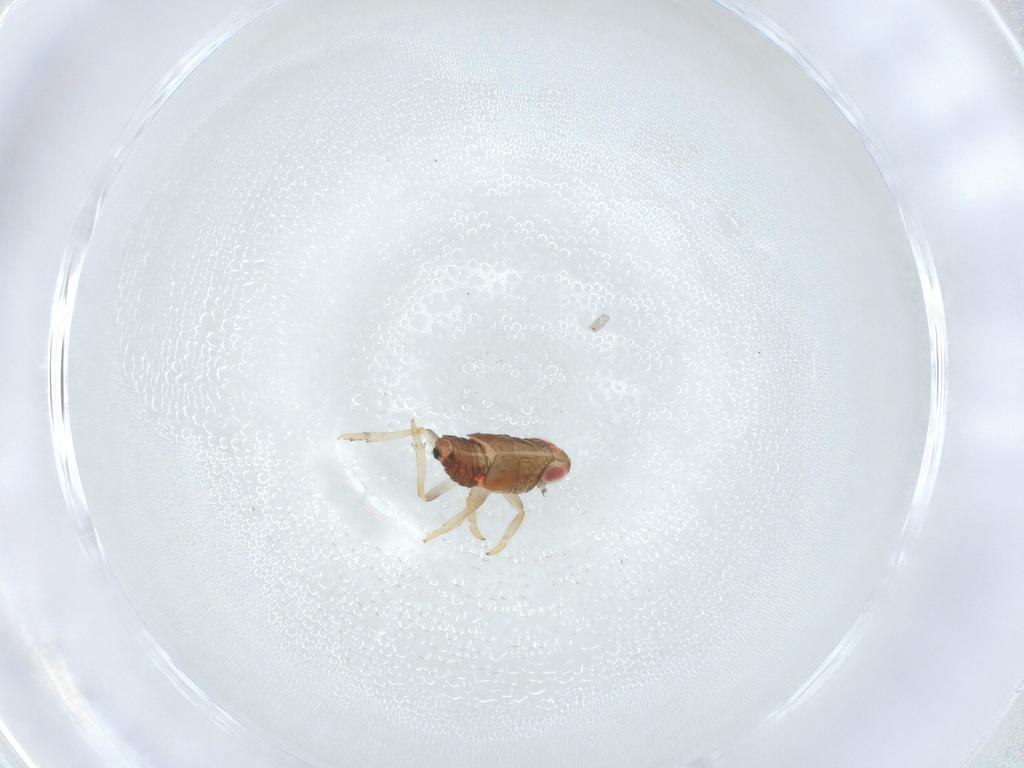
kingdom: Animalia
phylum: Arthropoda
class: Insecta
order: Hemiptera
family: Issidae
